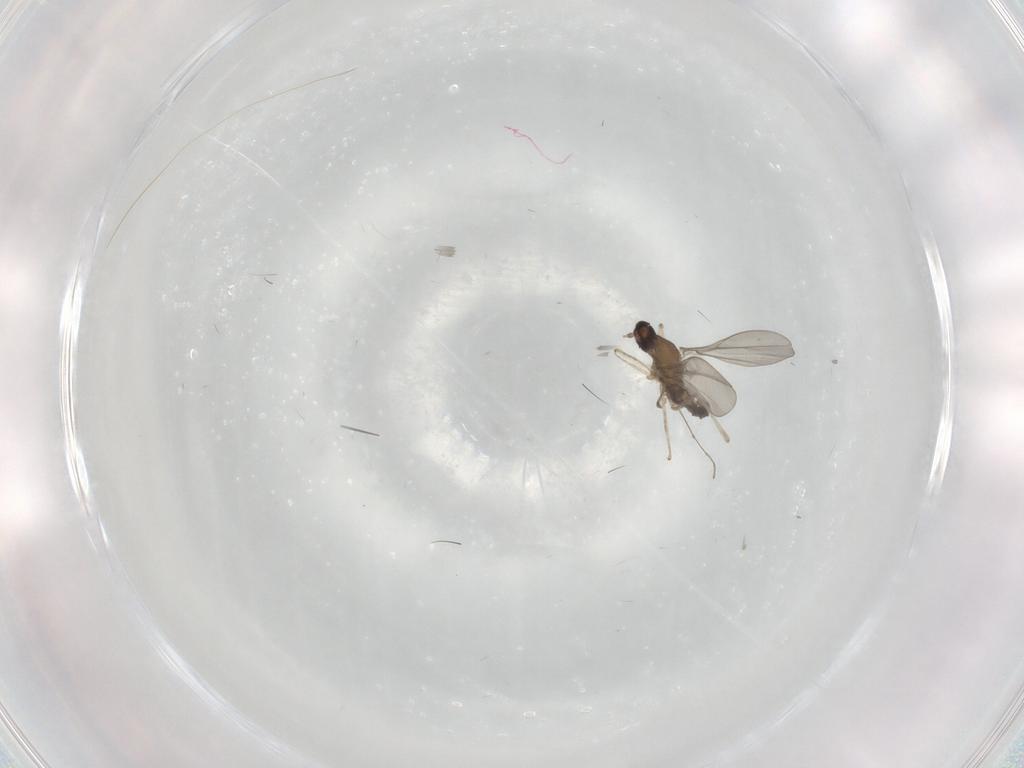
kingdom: Animalia
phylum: Arthropoda
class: Insecta
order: Diptera
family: Cecidomyiidae
